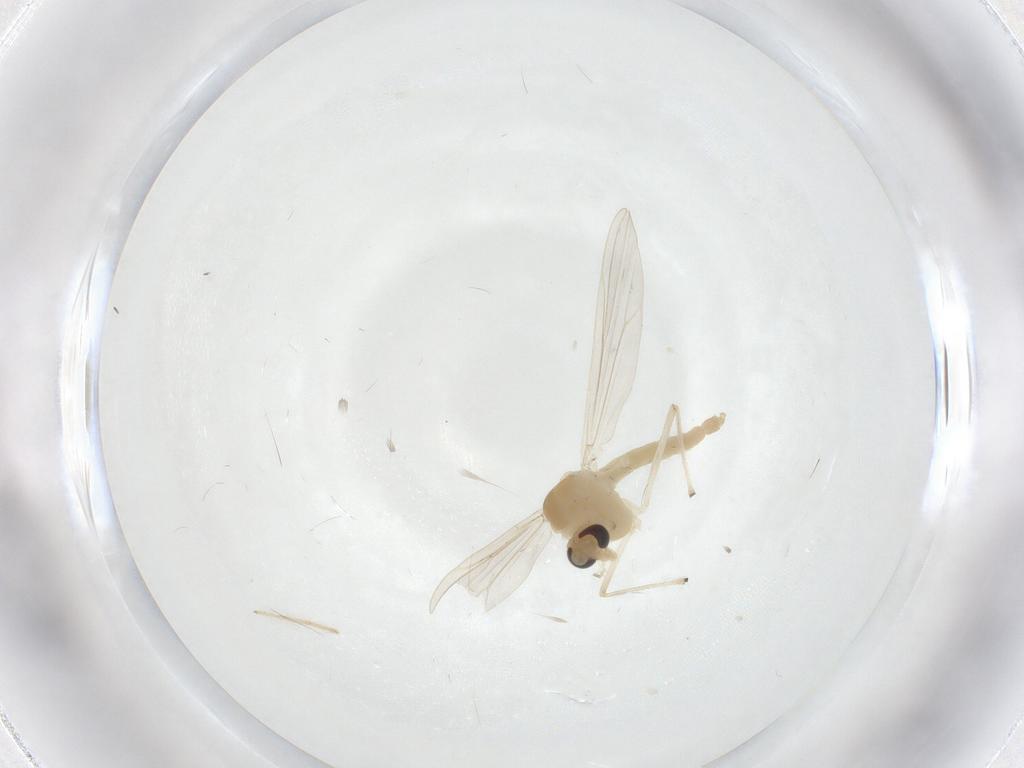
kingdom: Animalia
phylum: Arthropoda
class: Insecta
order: Diptera
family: Chironomidae
